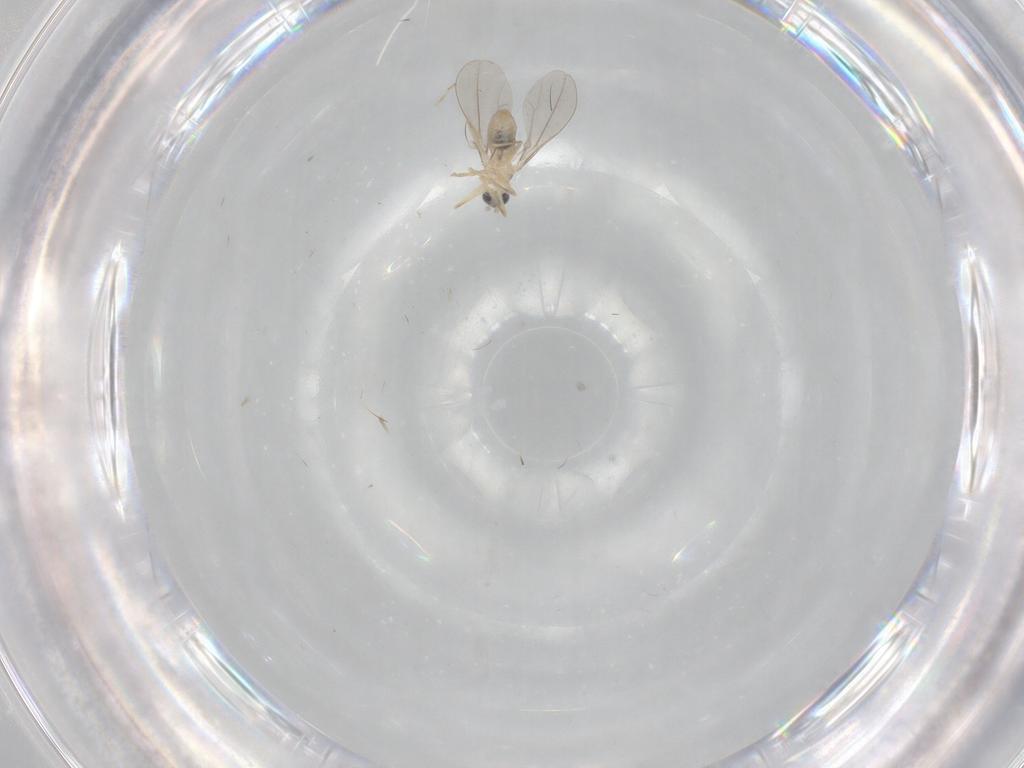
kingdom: Animalia
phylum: Arthropoda
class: Insecta
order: Diptera
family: Cecidomyiidae
